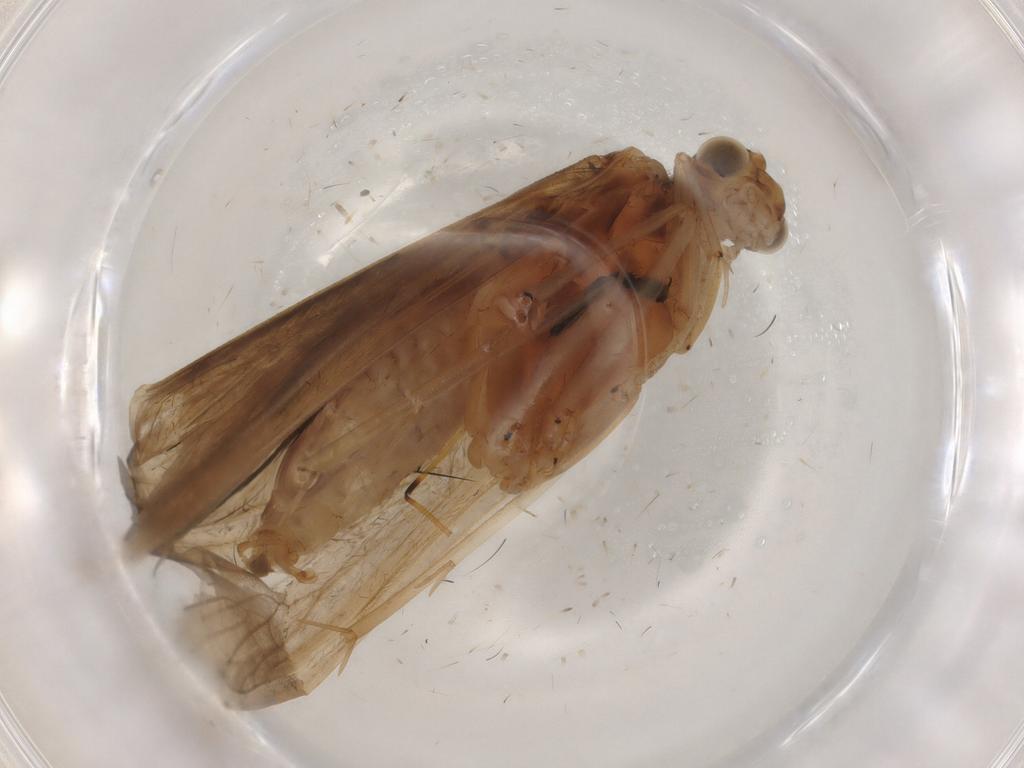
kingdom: Animalia
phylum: Arthropoda
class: Insecta
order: Trichoptera
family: Hydropsychidae
